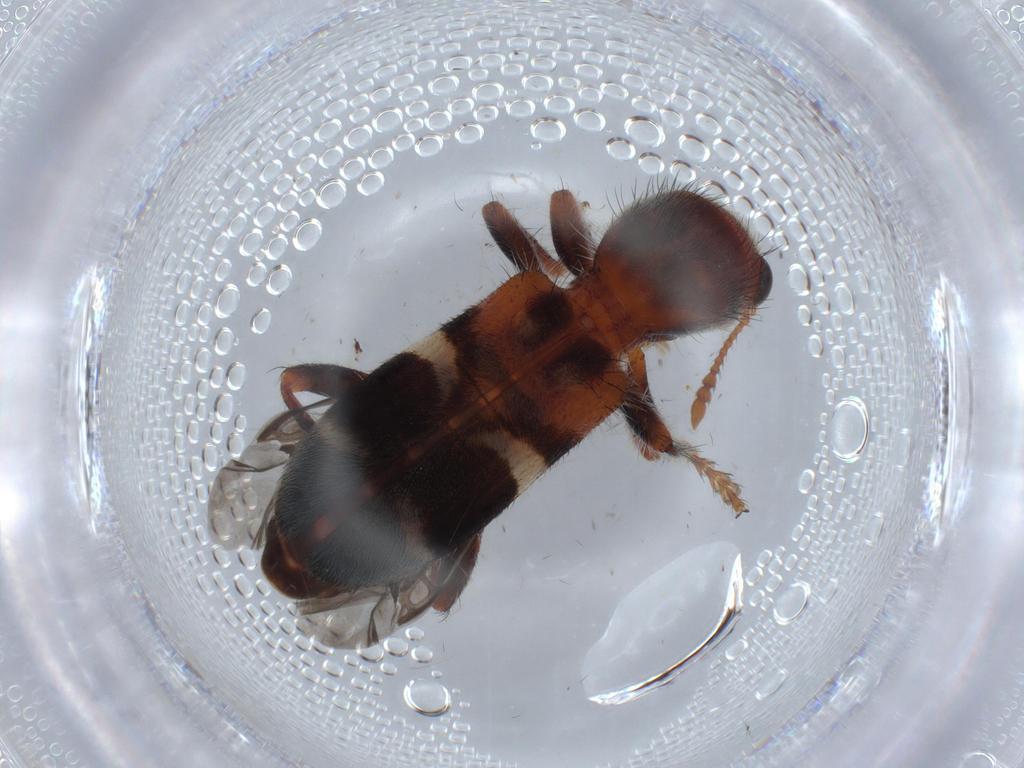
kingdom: Animalia
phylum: Arthropoda
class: Insecta
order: Coleoptera
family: Cleridae
